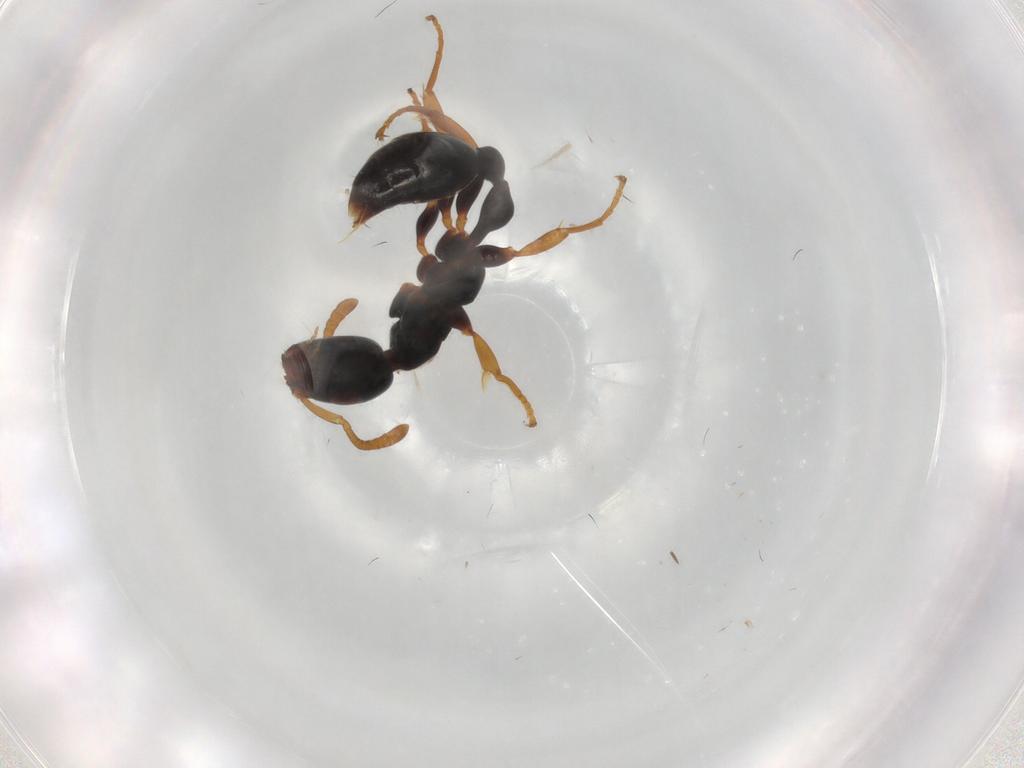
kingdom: Animalia
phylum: Arthropoda
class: Insecta
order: Hymenoptera
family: Formicidae
